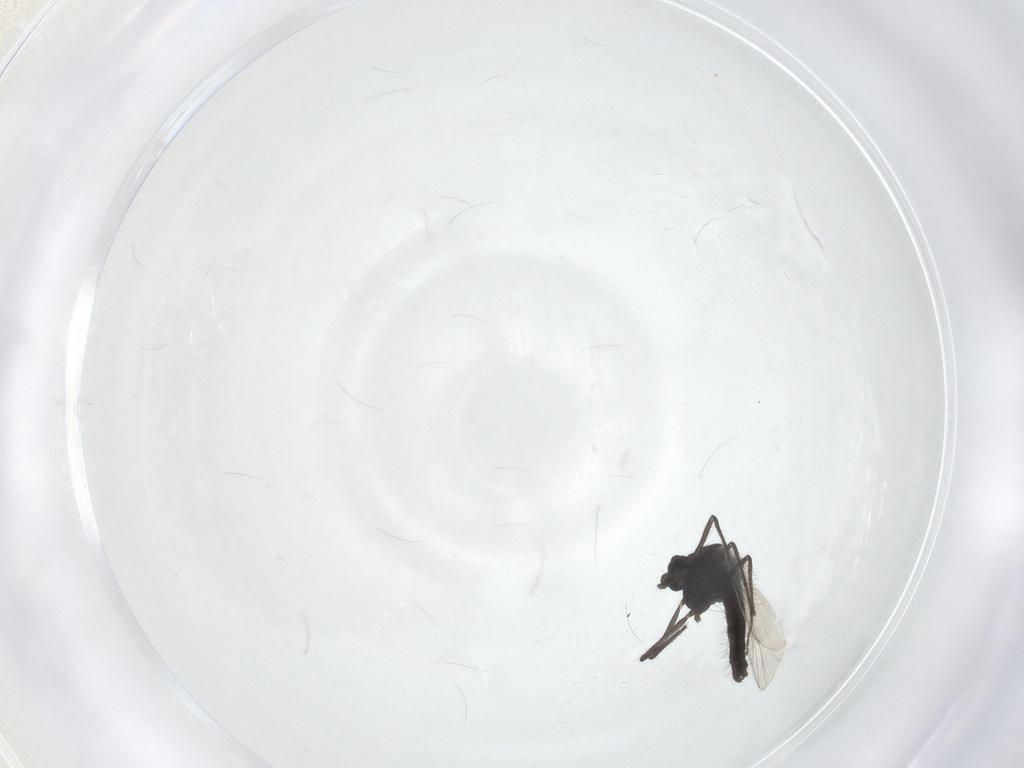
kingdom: Animalia
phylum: Arthropoda
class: Insecta
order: Diptera
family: Chironomidae
